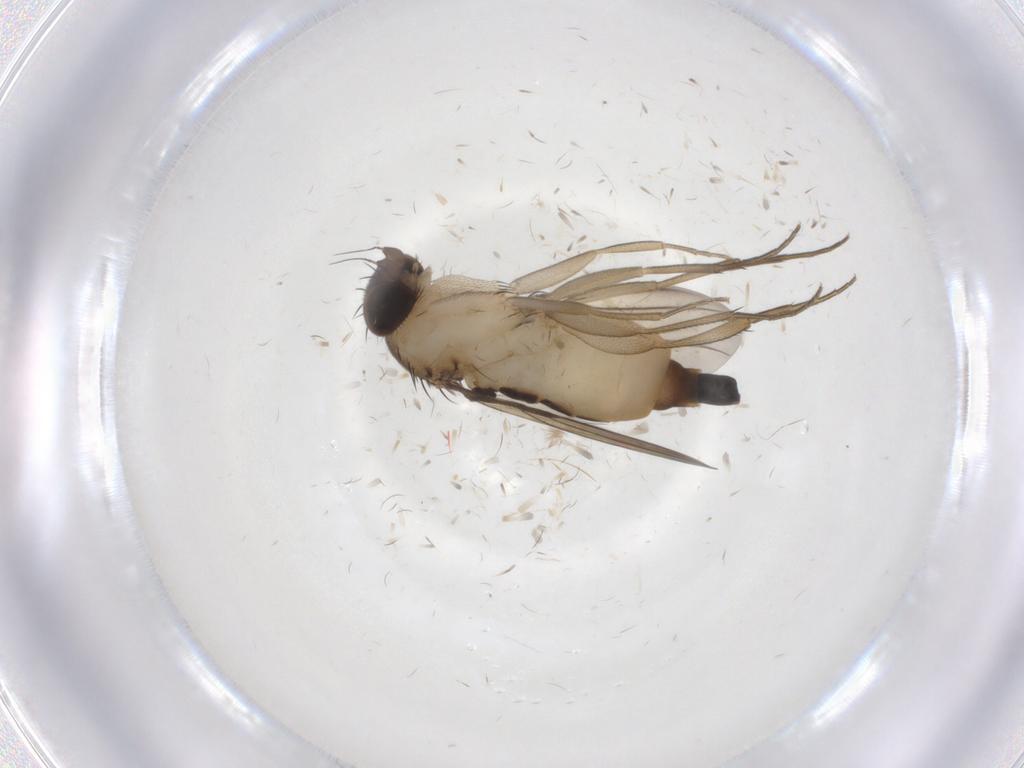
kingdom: Animalia
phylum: Arthropoda
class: Insecta
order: Diptera
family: Phoridae
